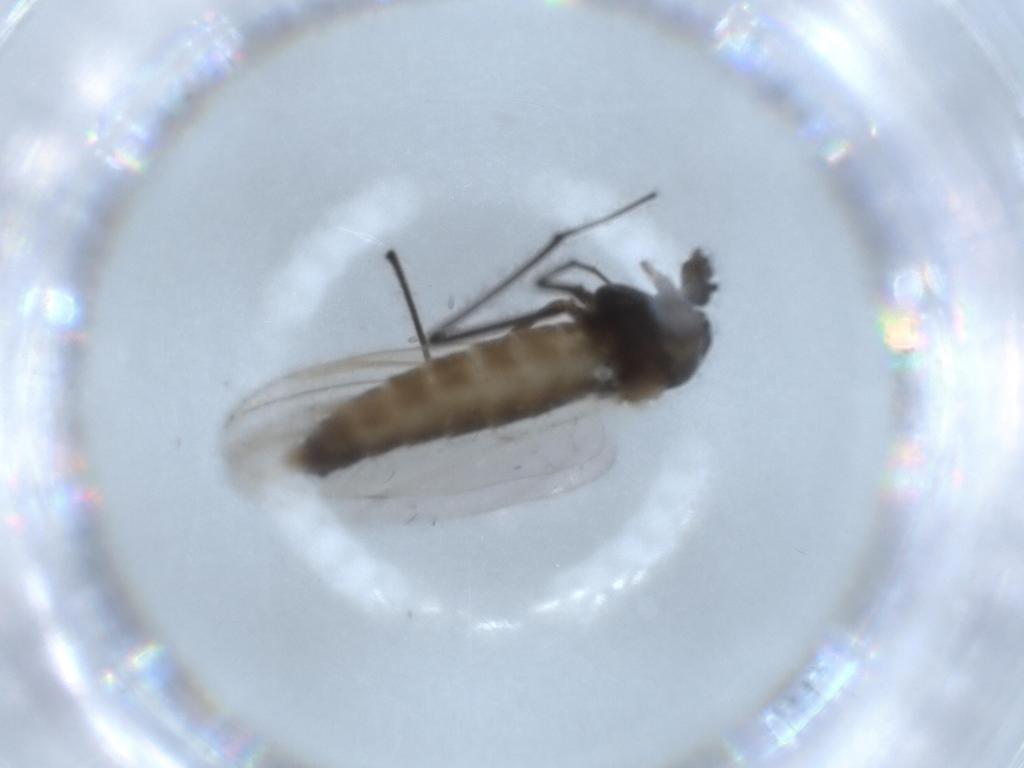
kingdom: Animalia
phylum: Arthropoda
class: Insecta
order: Diptera
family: Chironomidae
